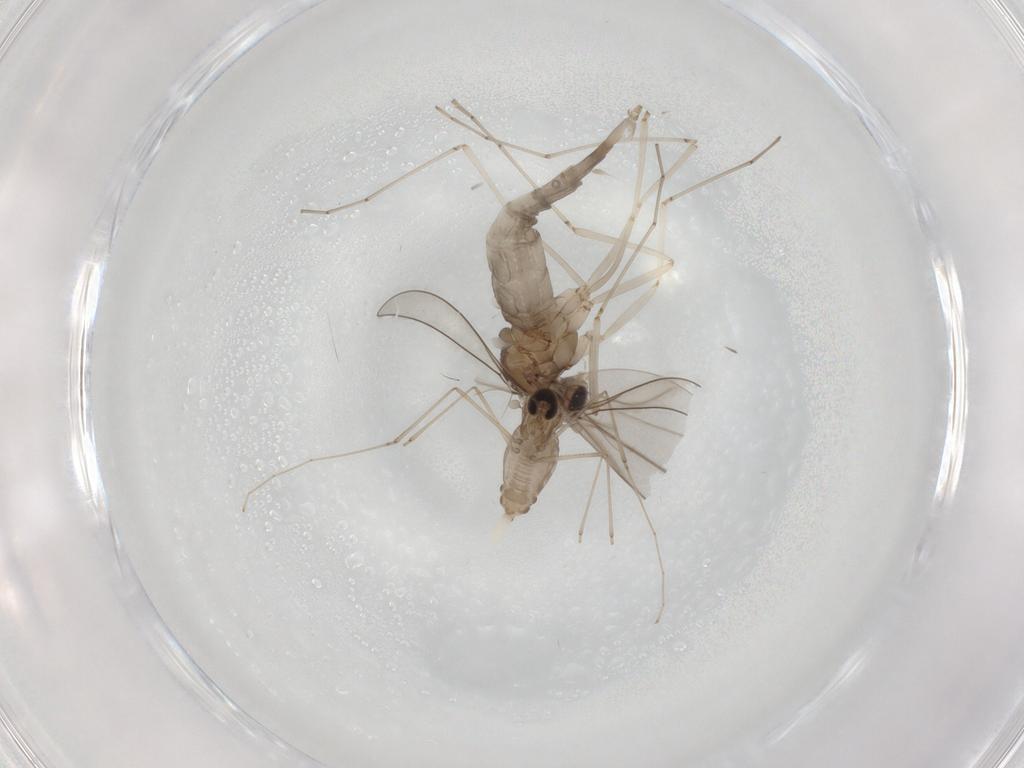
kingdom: Animalia
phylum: Arthropoda
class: Insecta
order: Diptera
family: Cecidomyiidae
